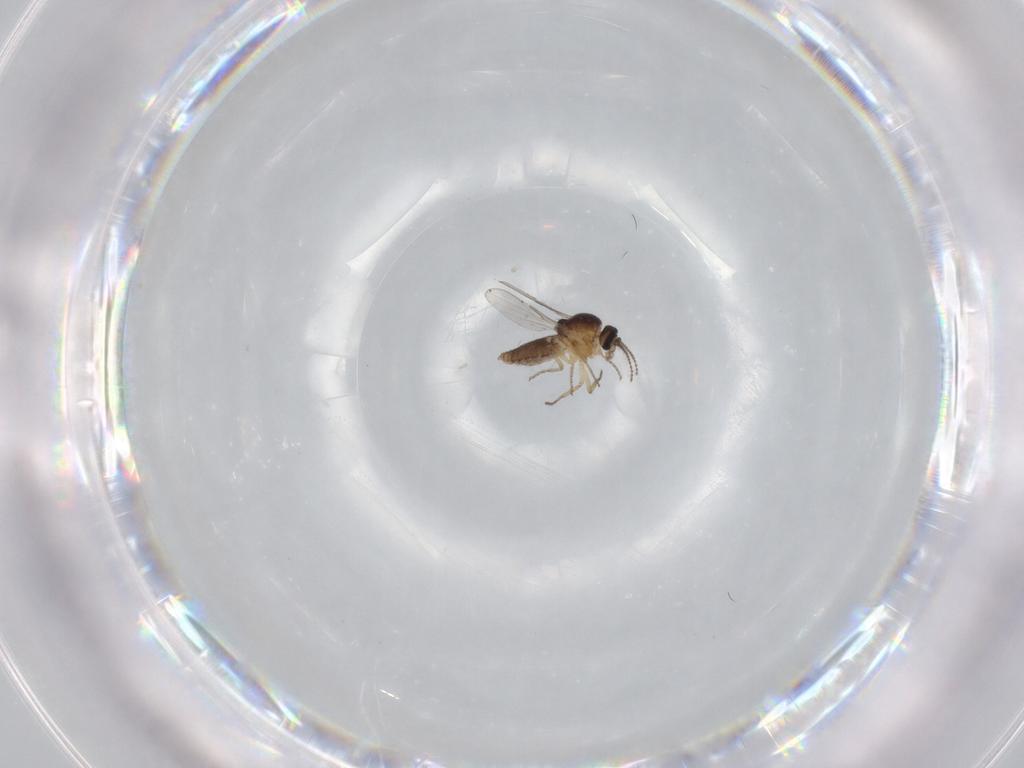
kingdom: Animalia
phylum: Arthropoda
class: Insecta
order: Diptera
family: Ceratopogonidae
